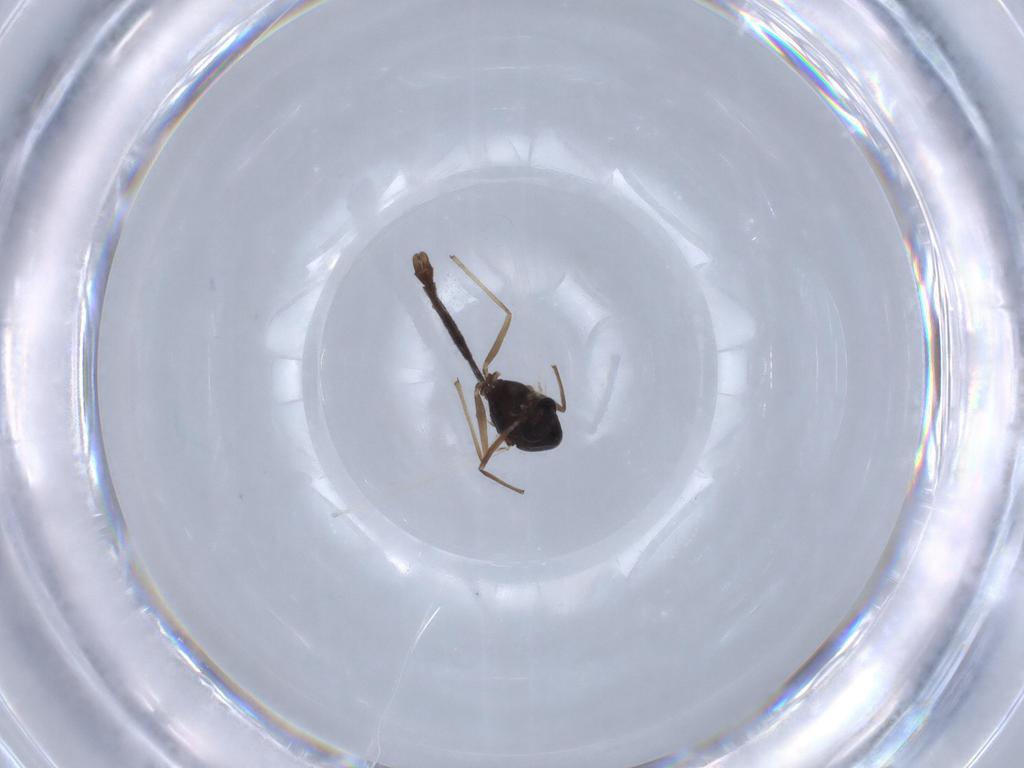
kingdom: Animalia
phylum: Arthropoda
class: Insecta
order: Diptera
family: Chironomidae
